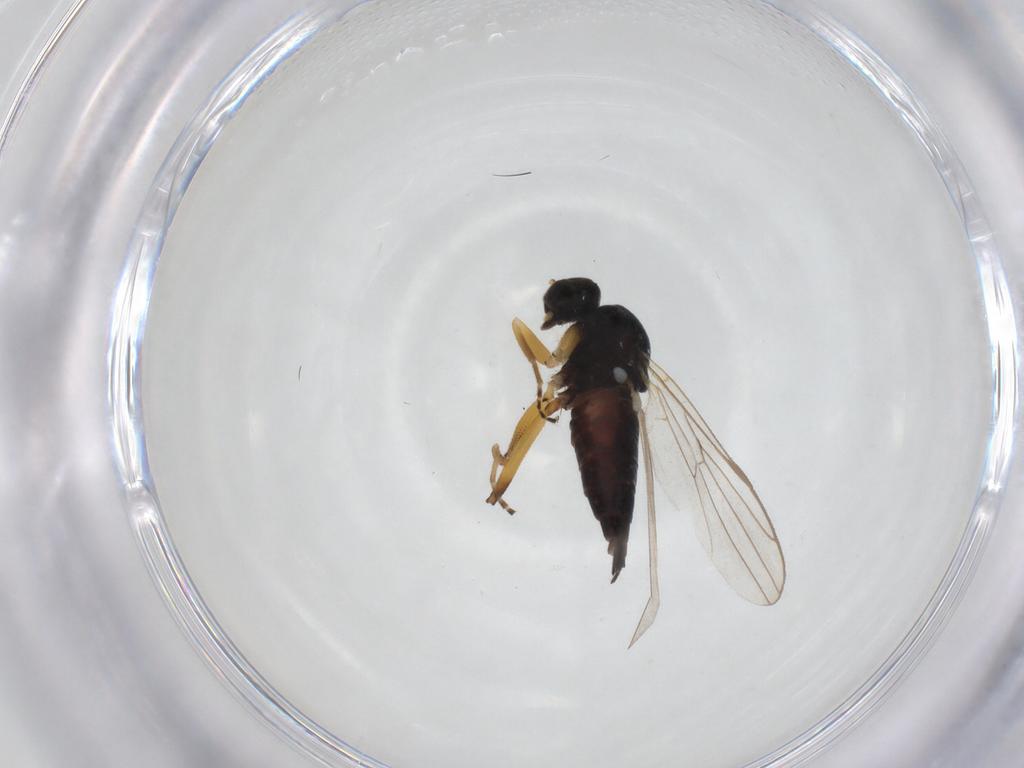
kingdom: Animalia
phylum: Arthropoda
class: Insecta
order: Diptera
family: Hybotidae
